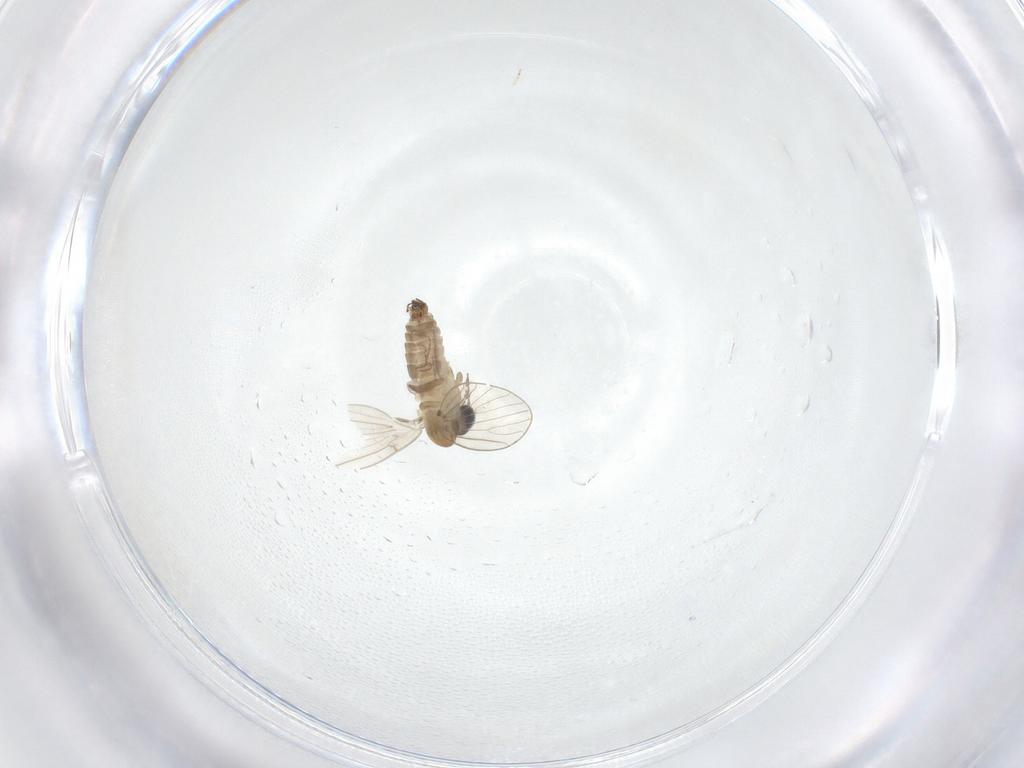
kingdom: Animalia
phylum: Arthropoda
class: Insecta
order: Diptera
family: Psychodidae
